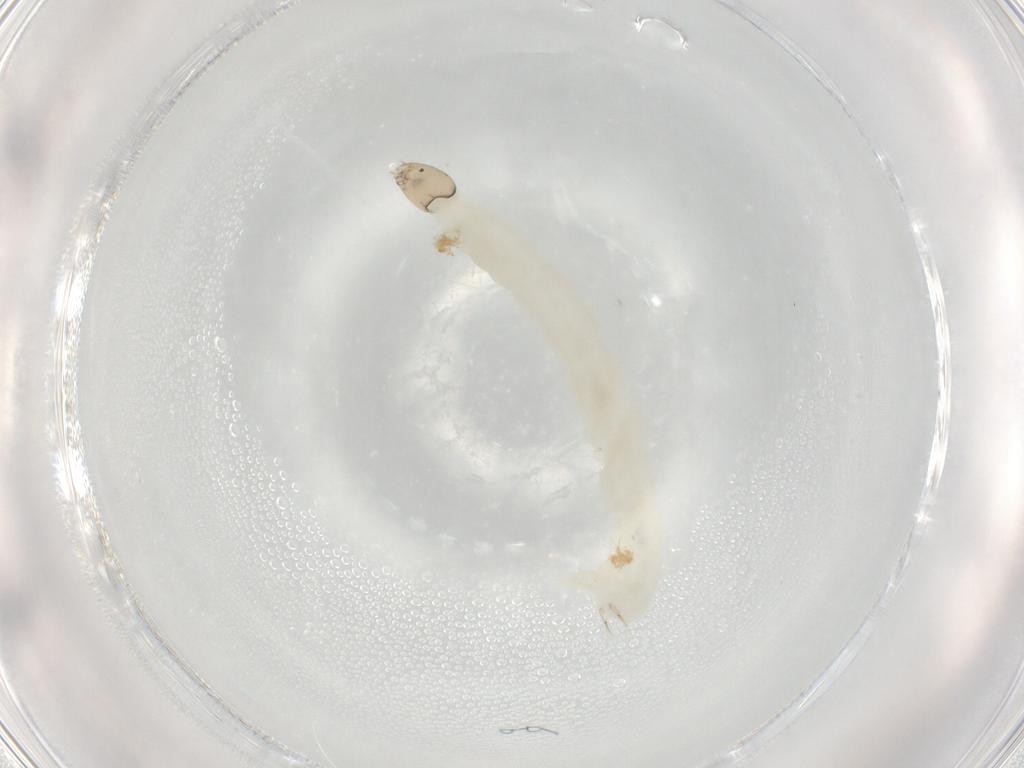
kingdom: Animalia
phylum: Arthropoda
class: Insecta
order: Diptera
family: Chironomidae
